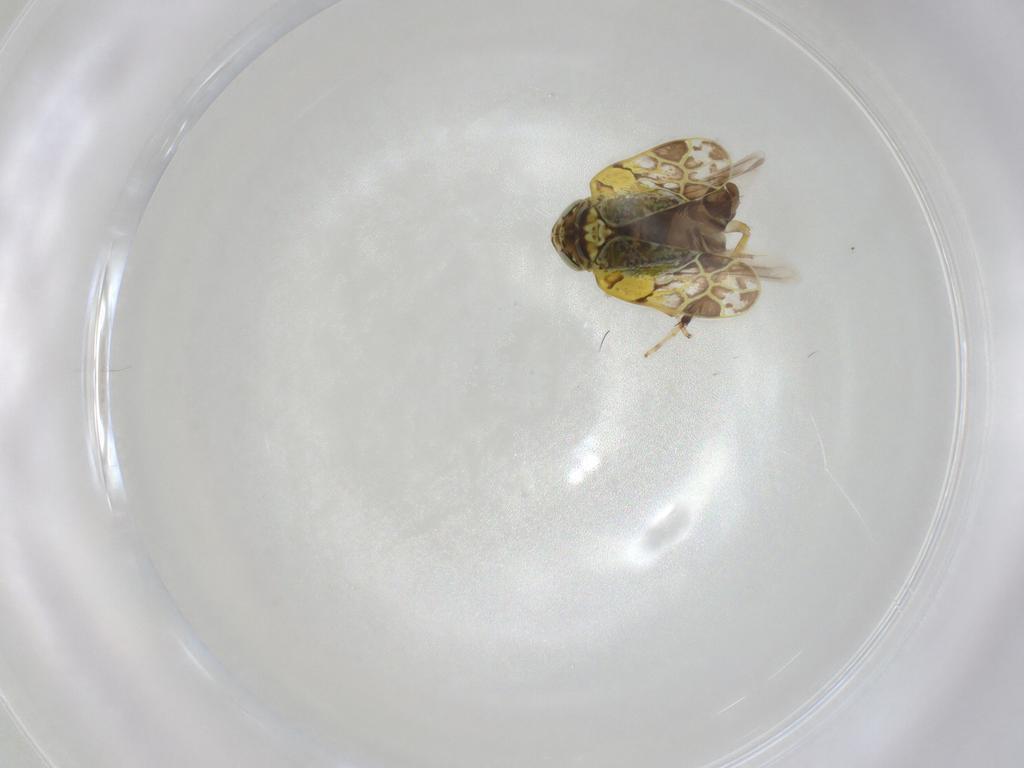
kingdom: Animalia
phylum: Arthropoda
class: Insecta
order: Hemiptera
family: Cicadellidae
